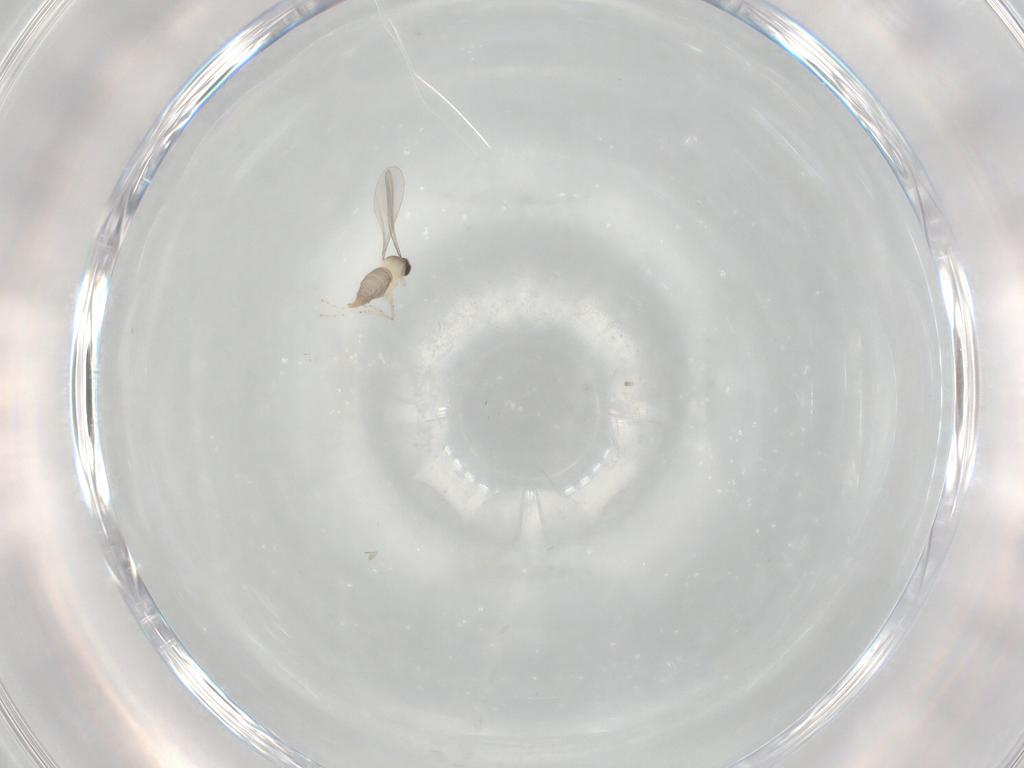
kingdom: Animalia
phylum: Arthropoda
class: Insecta
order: Diptera
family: Cecidomyiidae
